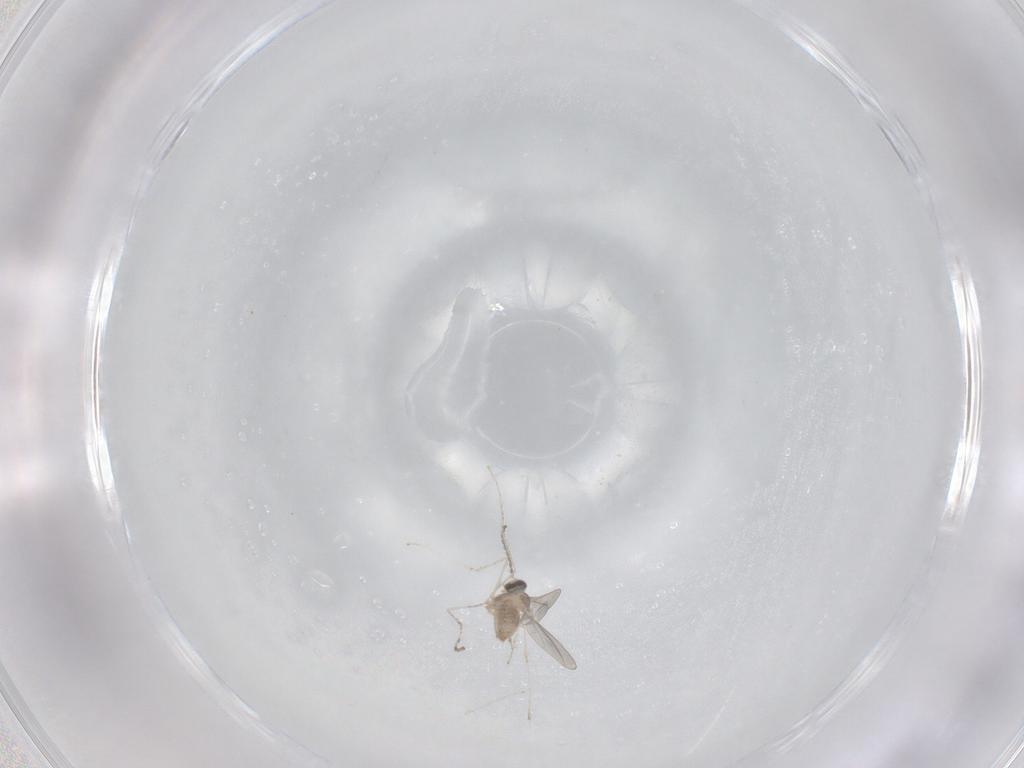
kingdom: Animalia
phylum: Arthropoda
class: Insecta
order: Diptera
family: Cecidomyiidae
